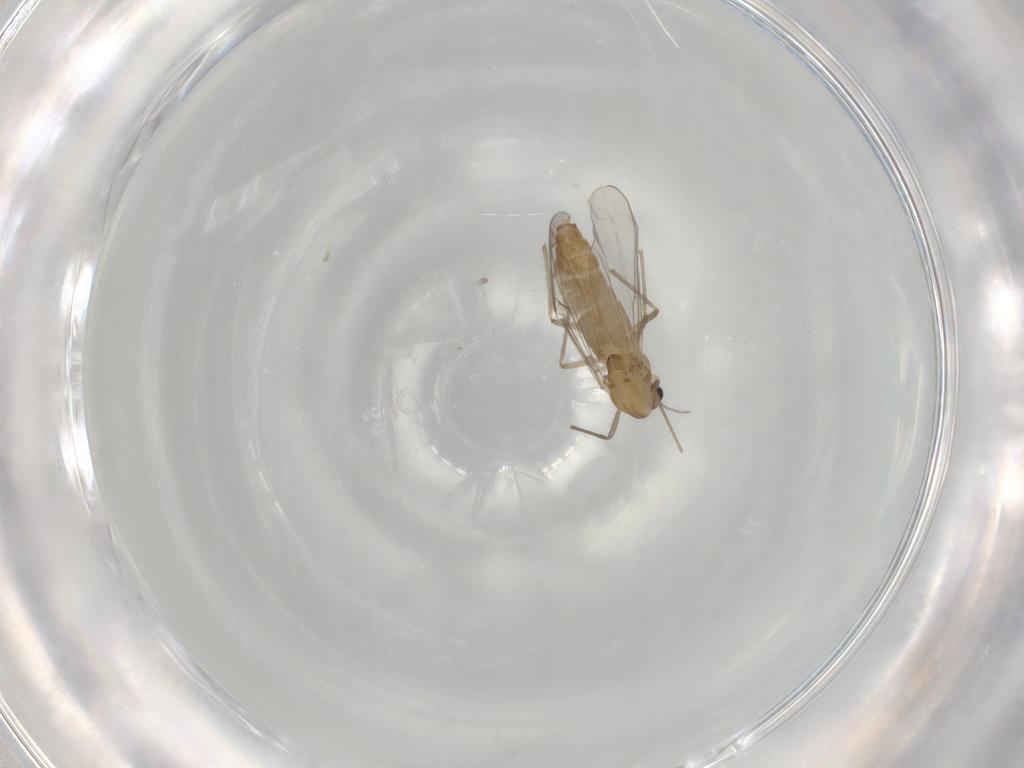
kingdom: Animalia
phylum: Arthropoda
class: Insecta
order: Diptera
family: Chironomidae
